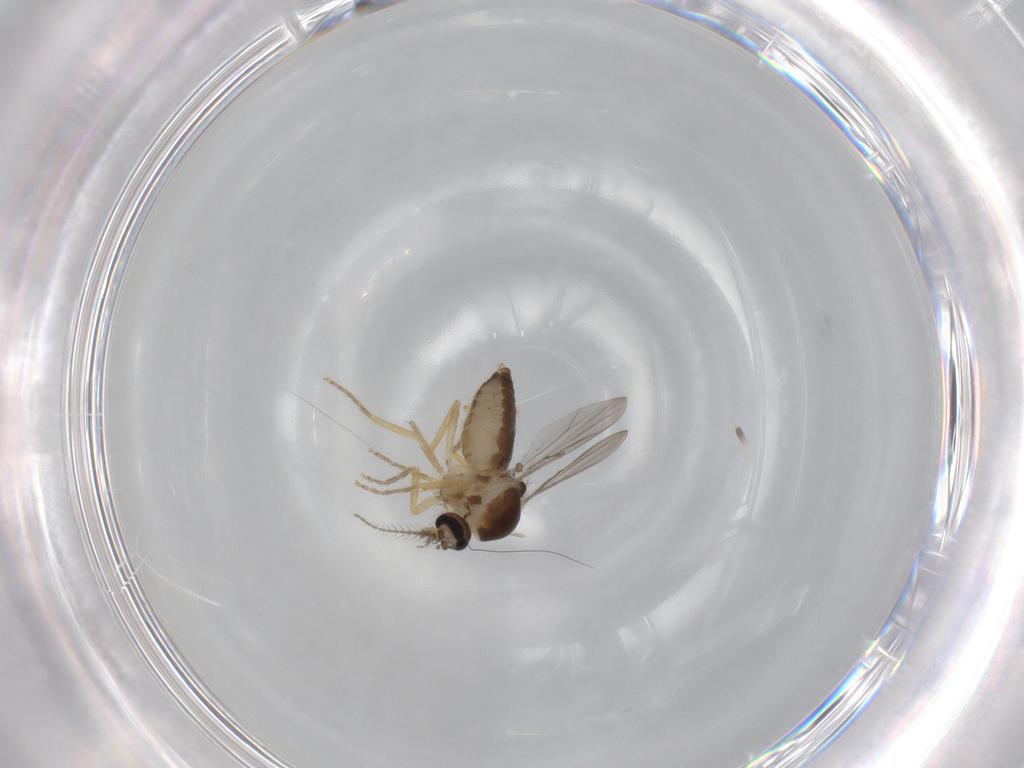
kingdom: Animalia
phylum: Arthropoda
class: Insecta
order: Diptera
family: Ceratopogonidae
